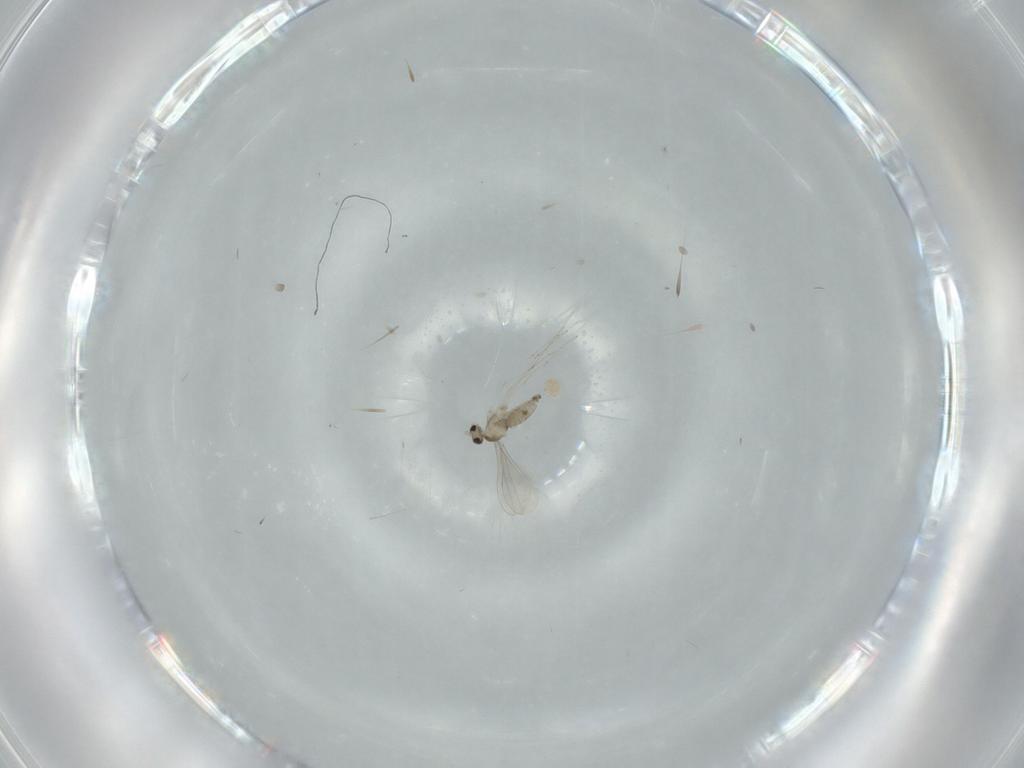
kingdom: Animalia
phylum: Arthropoda
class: Insecta
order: Diptera
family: Cecidomyiidae
